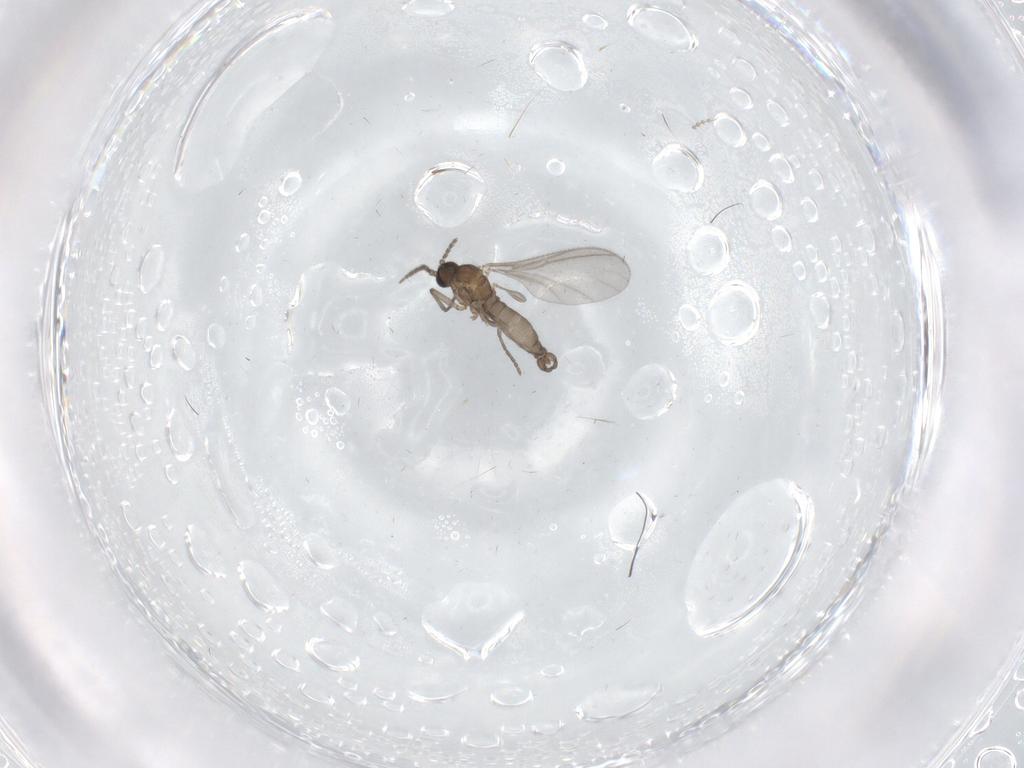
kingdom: Animalia
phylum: Arthropoda
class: Insecta
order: Diptera
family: Sciaridae
